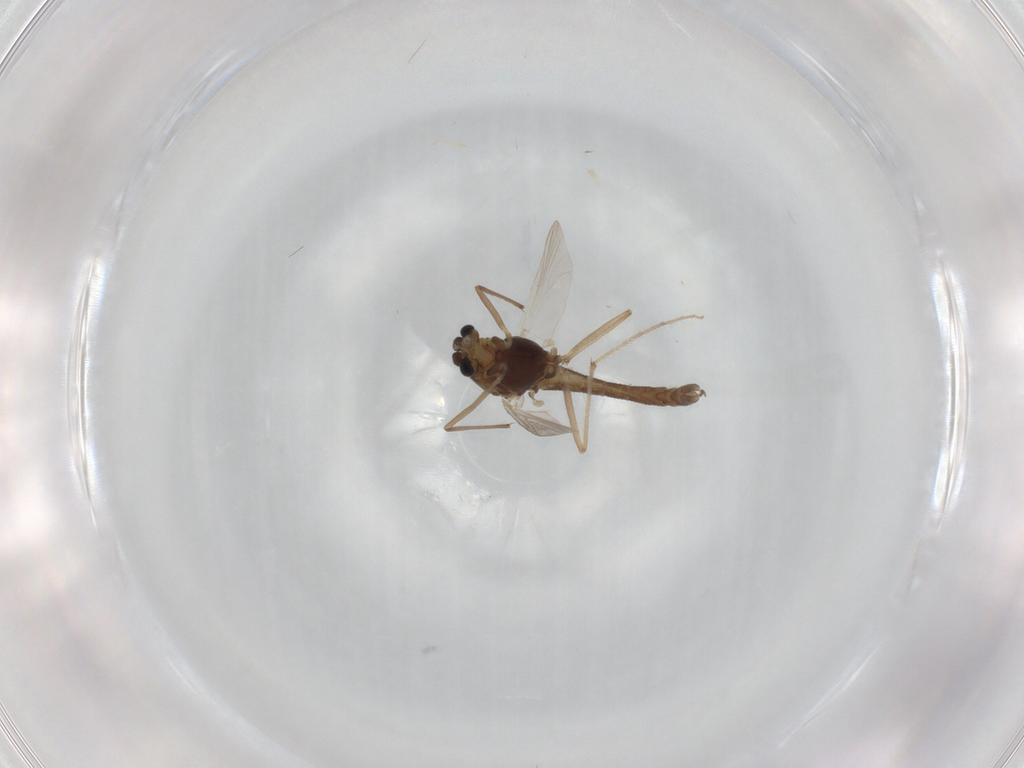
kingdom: Animalia
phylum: Arthropoda
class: Insecta
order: Diptera
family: Chironomidae
